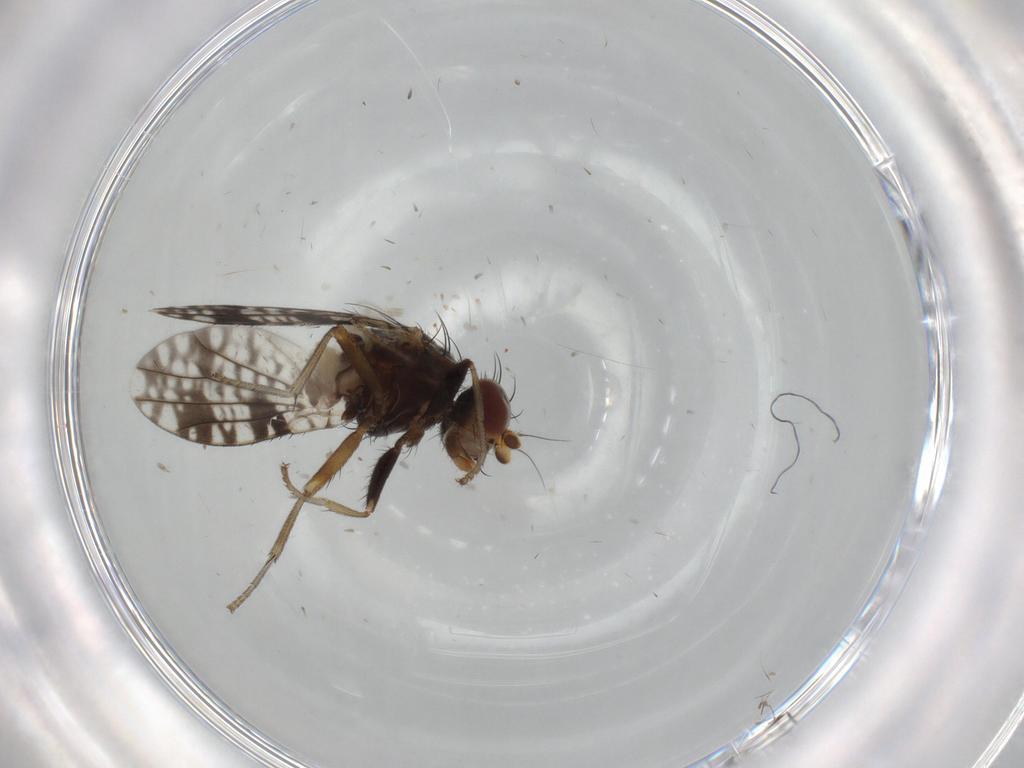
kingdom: Animalia
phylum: Arthropoda
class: Insecta
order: Diptera
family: Tephritidae
